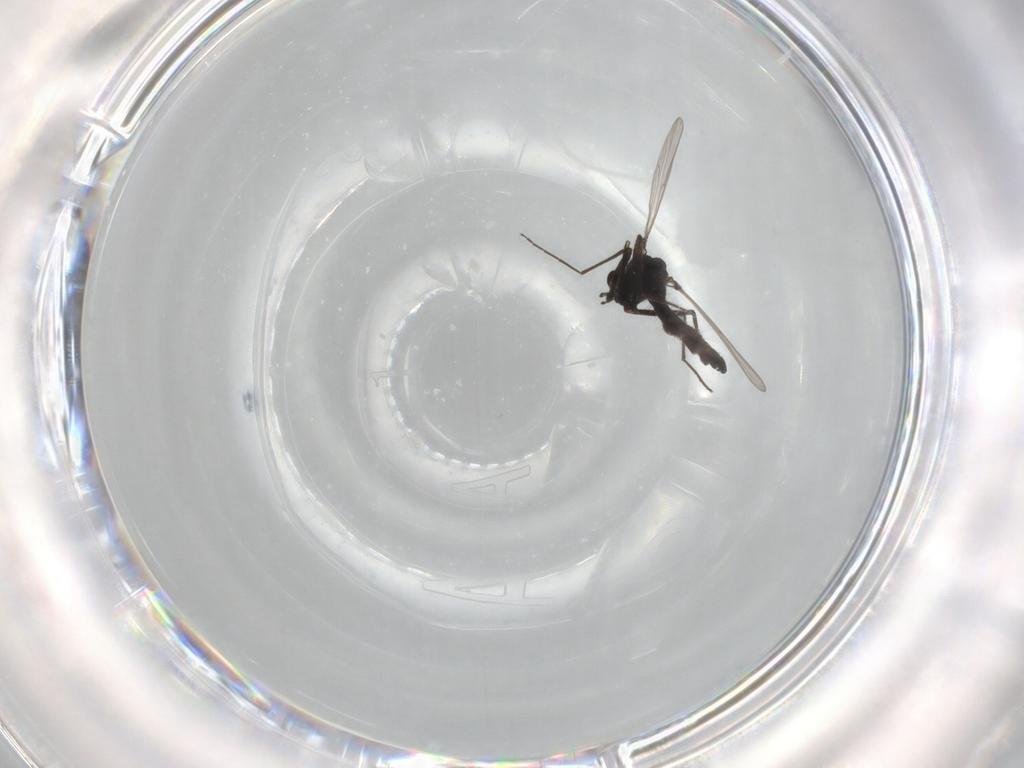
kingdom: Animalia
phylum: Arthropoda
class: Insecta
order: Diptera
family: Chironomidae
